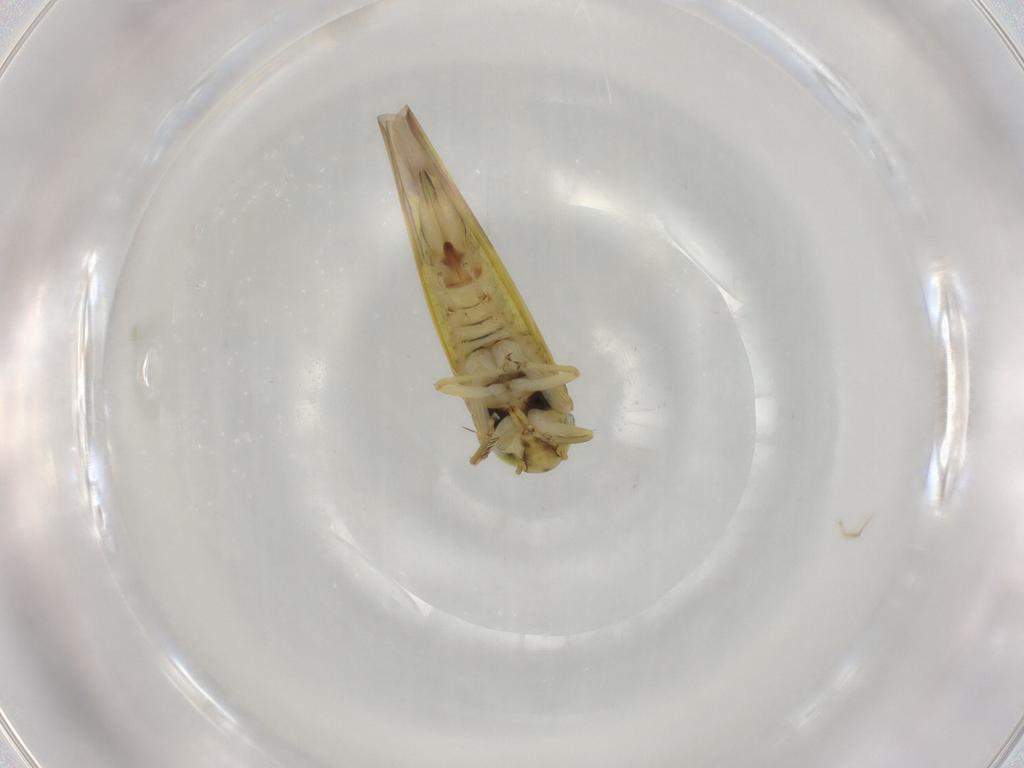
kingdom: Animalia
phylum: Arthropoda
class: Insecta
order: Hemiptera
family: Cicadellidae
